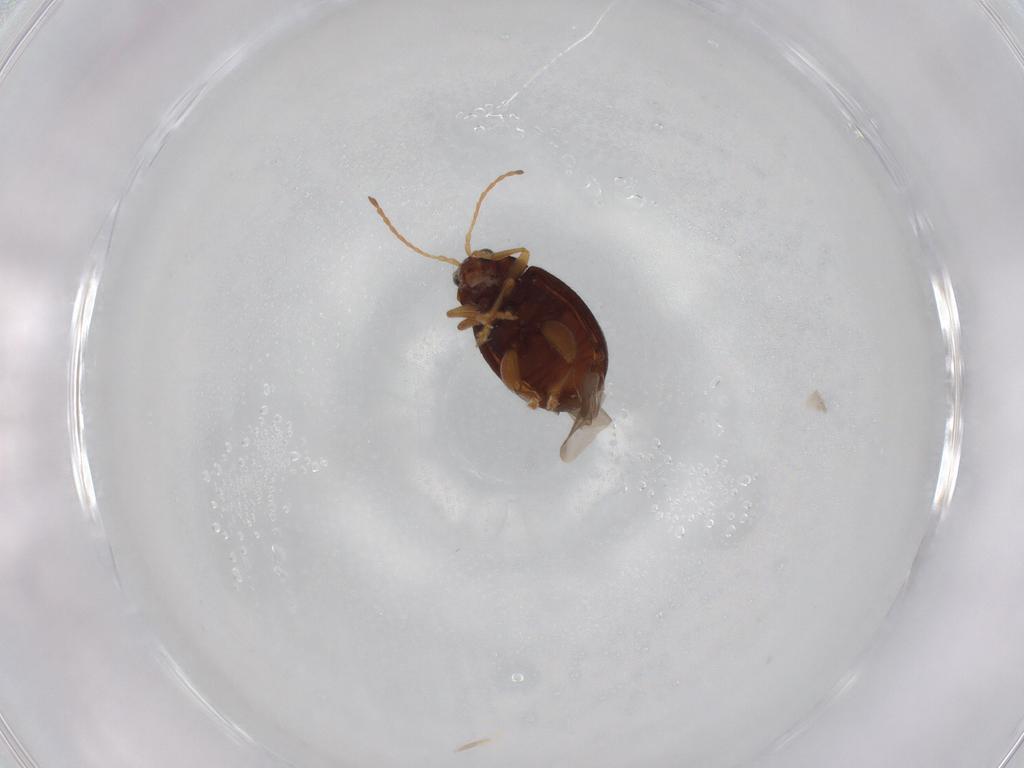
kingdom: Animalia
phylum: Arthropoda
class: Insecta
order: Coleoptera
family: Chrysomelidae
